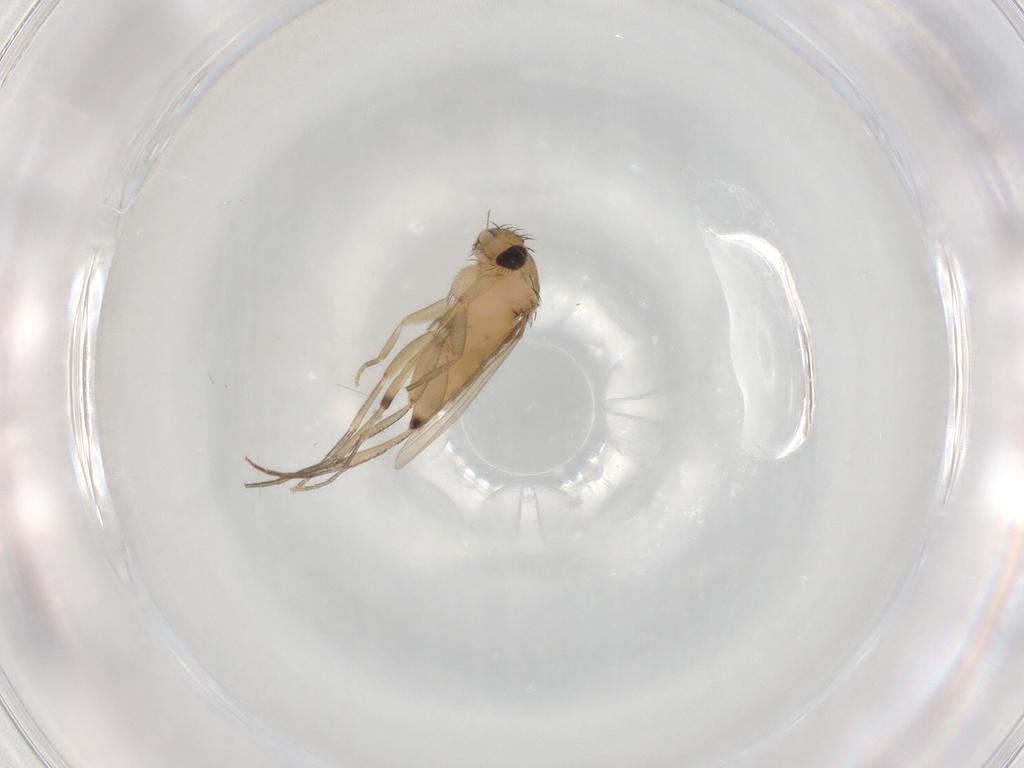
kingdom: Animalia
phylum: Arthropoda
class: Insecta
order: Diptera
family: Phoridae
